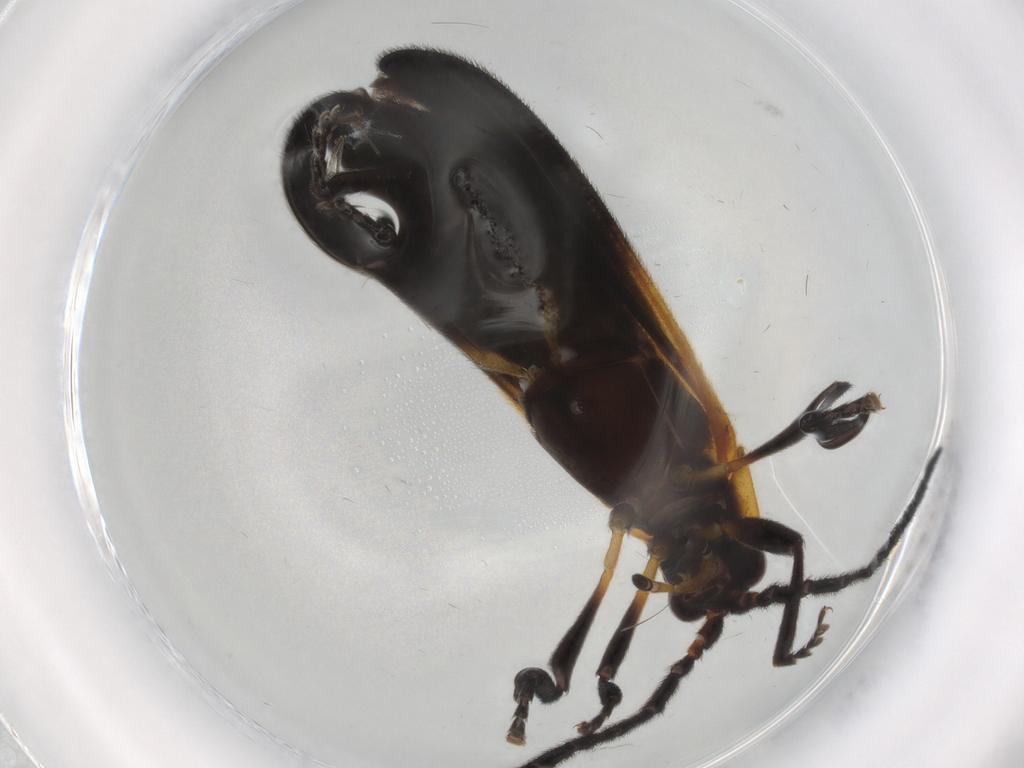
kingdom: Animalia
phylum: Arthropoda
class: Insecta
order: Coleoptera
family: Lycidae
